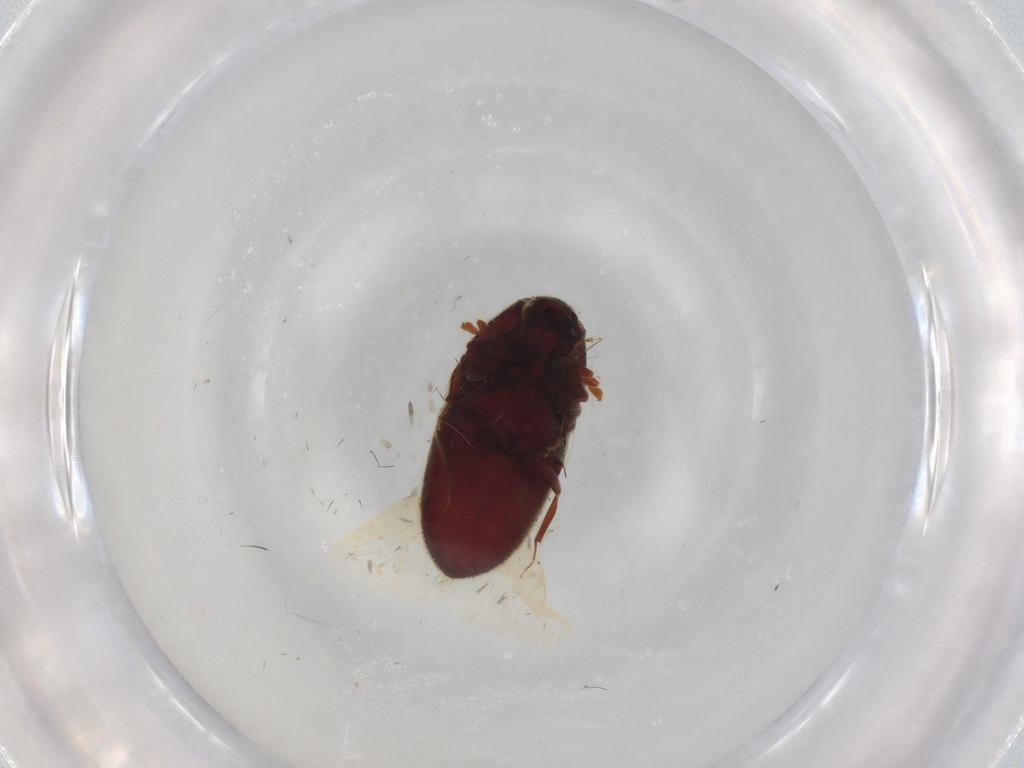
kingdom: Animalia
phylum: Arthropoda
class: Insecta
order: Coleoptera
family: Throscidae
